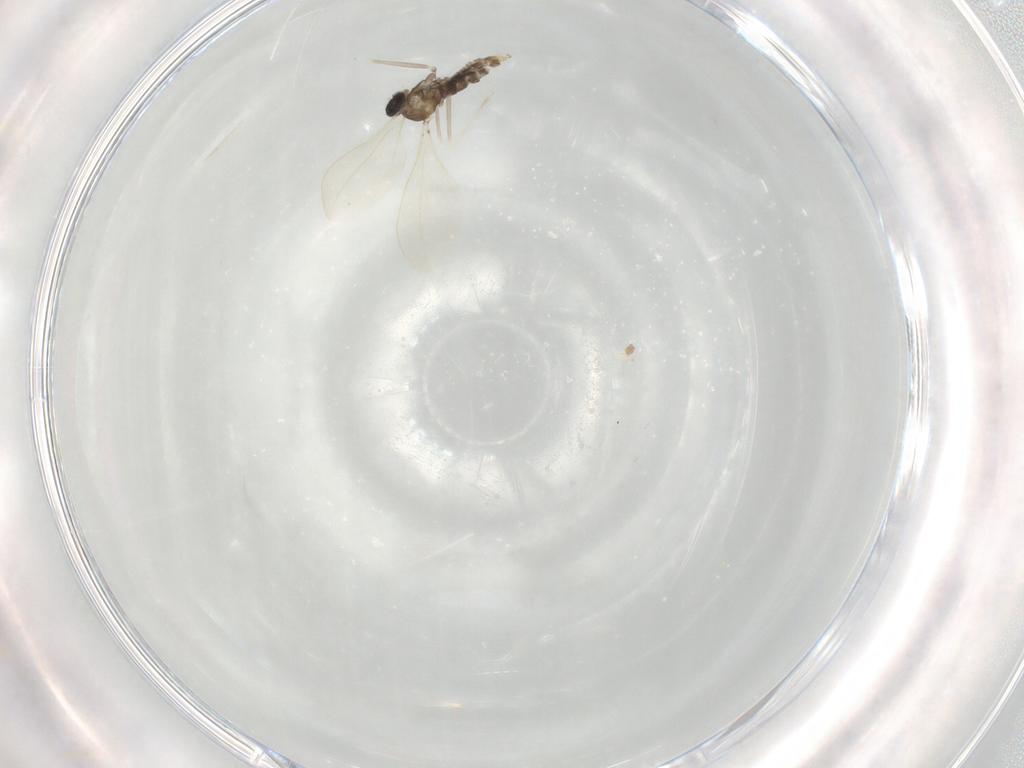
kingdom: Animalia
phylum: Arthropoda
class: Insecta
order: Diptera
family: Cecidomyiidae
